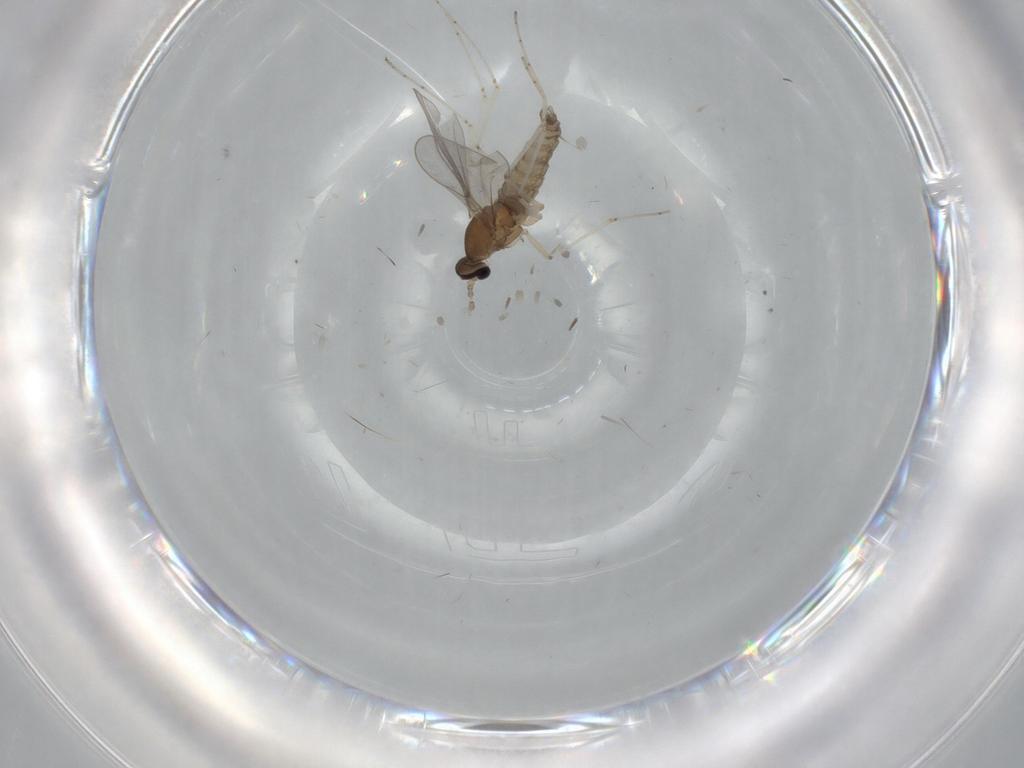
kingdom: Animalia
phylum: Arthropoda
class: Insecta
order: Diptera
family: Cecidomyiidae
